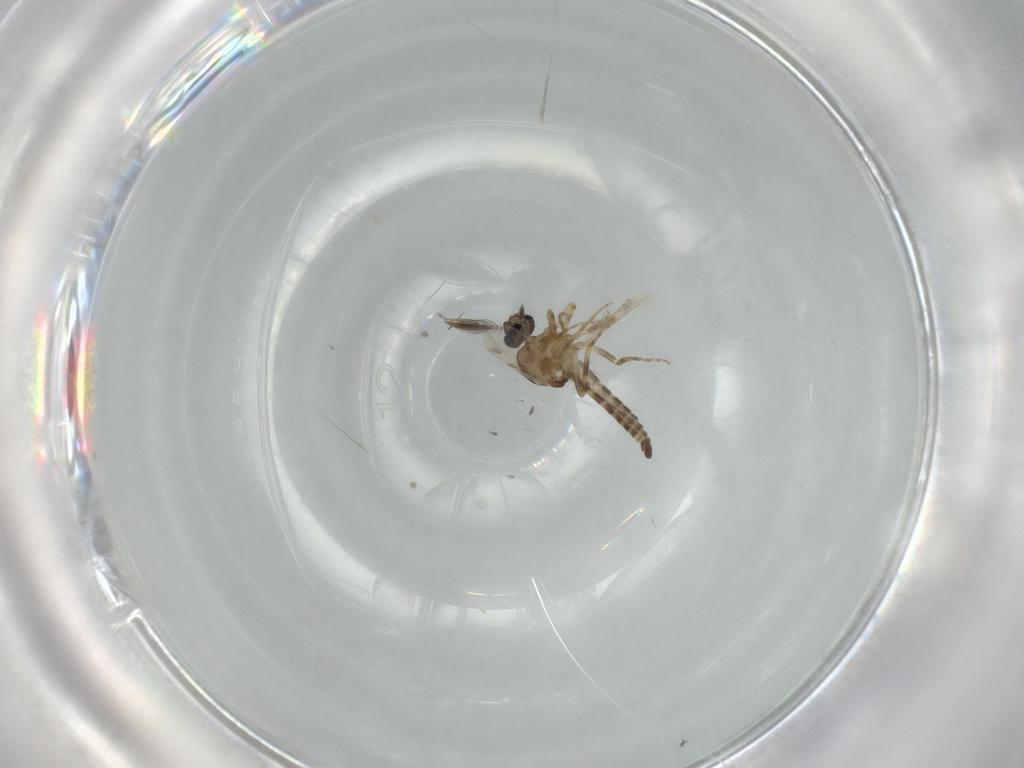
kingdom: Animalia
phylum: Arthropoda
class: Insecta
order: Diptera
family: Ceratopogonidae
